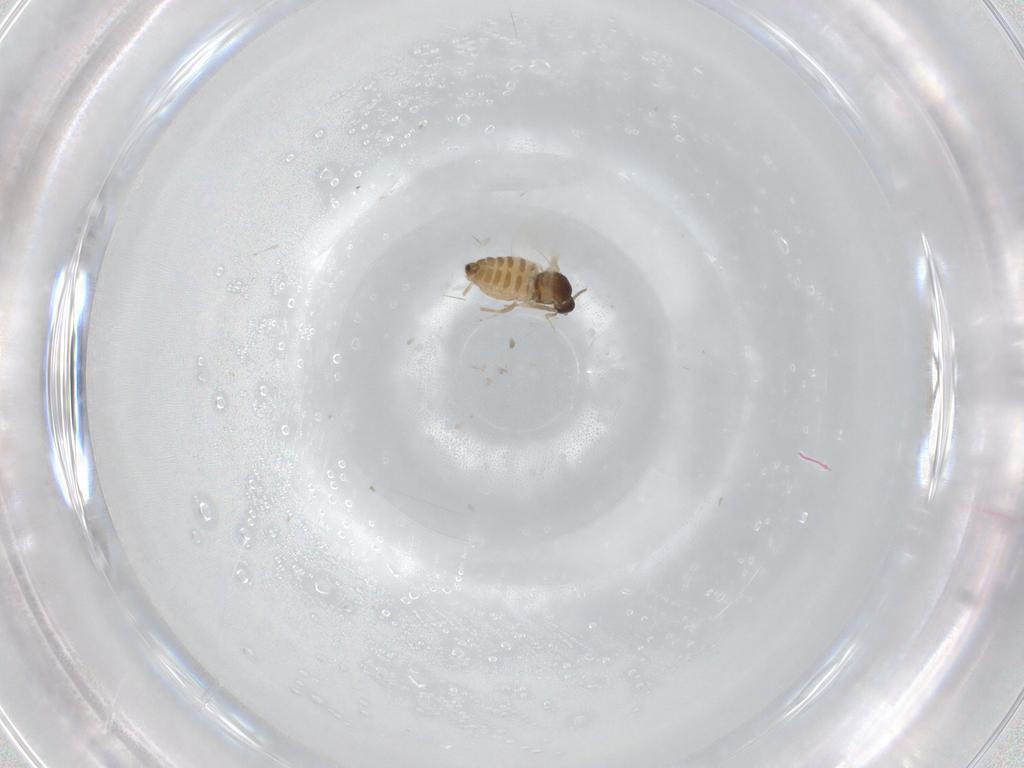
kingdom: Animalia
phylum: Arthropoda
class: Insecta
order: Diptera
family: Cecidomyiidae
